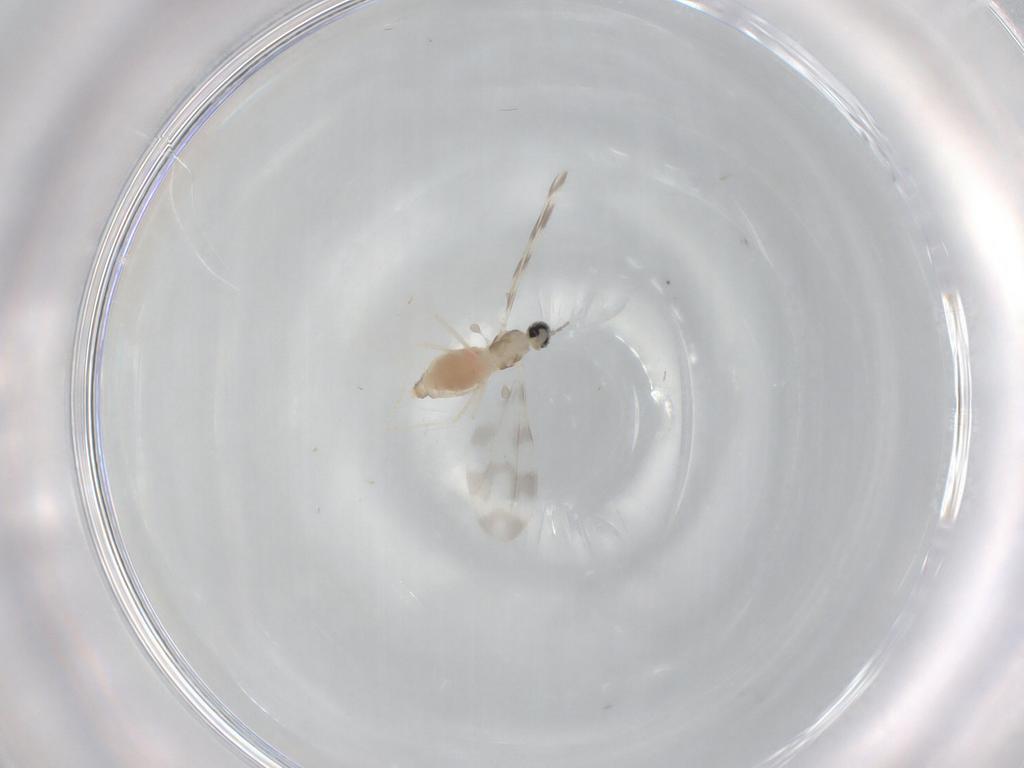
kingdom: Animalia
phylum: Arthropoda
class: Insecta
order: Diptera
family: Cecidomyiidae
